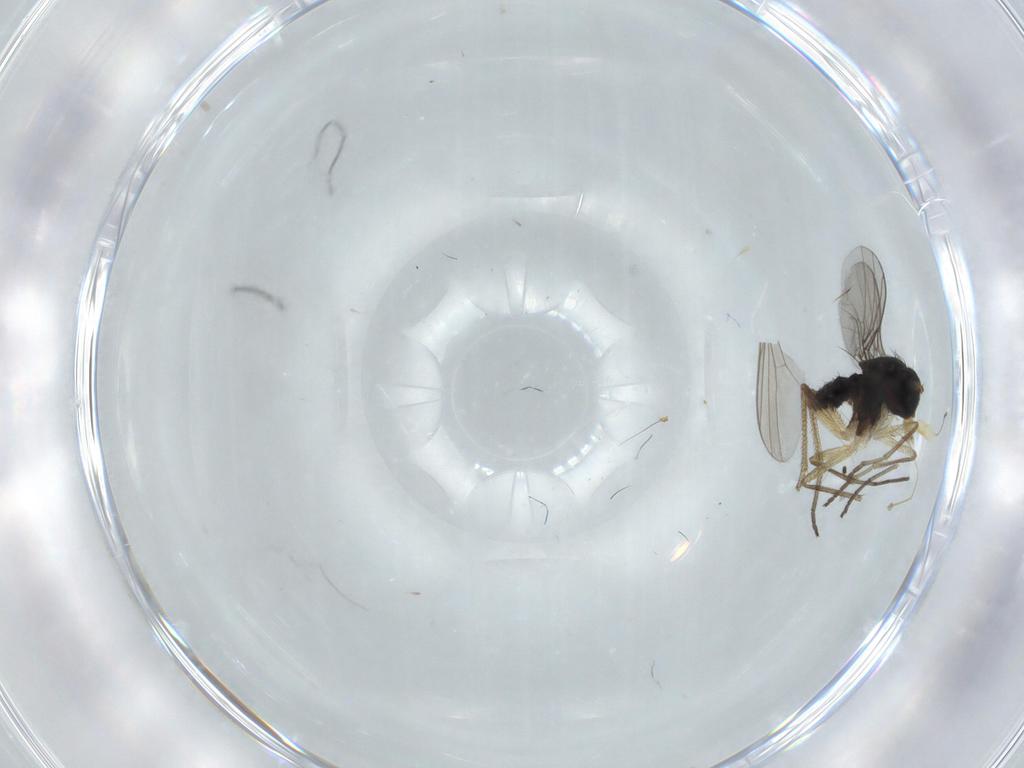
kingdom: Animalia
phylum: Arthropoda
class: Insecta
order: Diptera
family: Dolichopodidae
